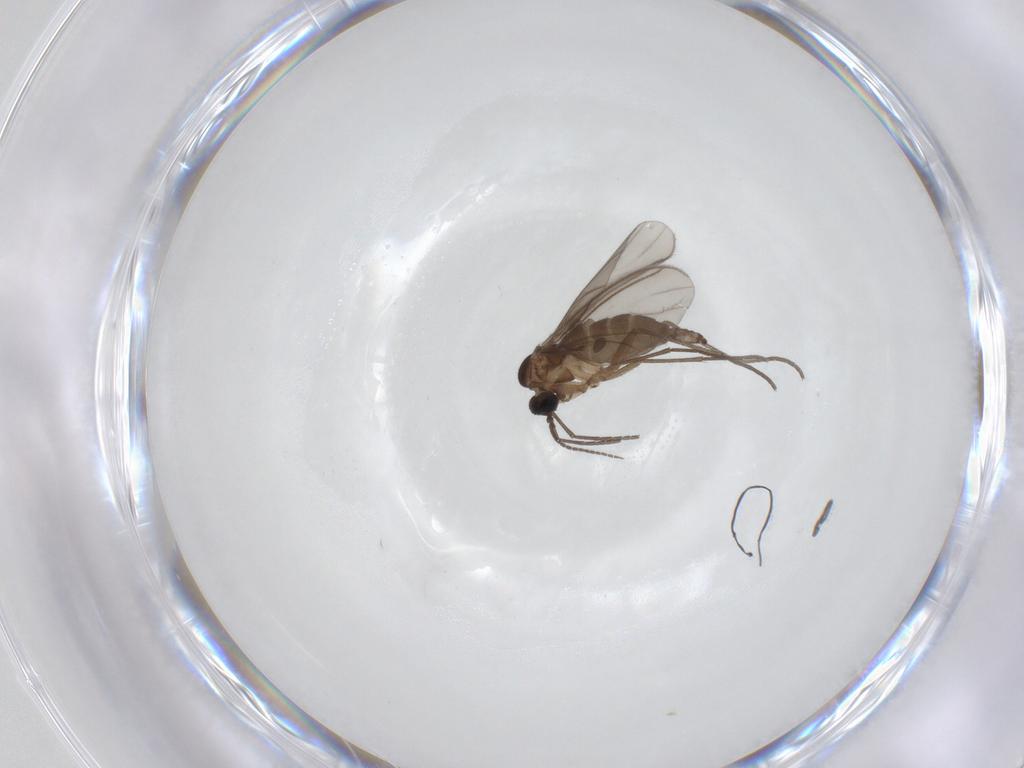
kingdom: Animalia
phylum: Arthropoda
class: Insecta
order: Diptera
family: Sciaridae
